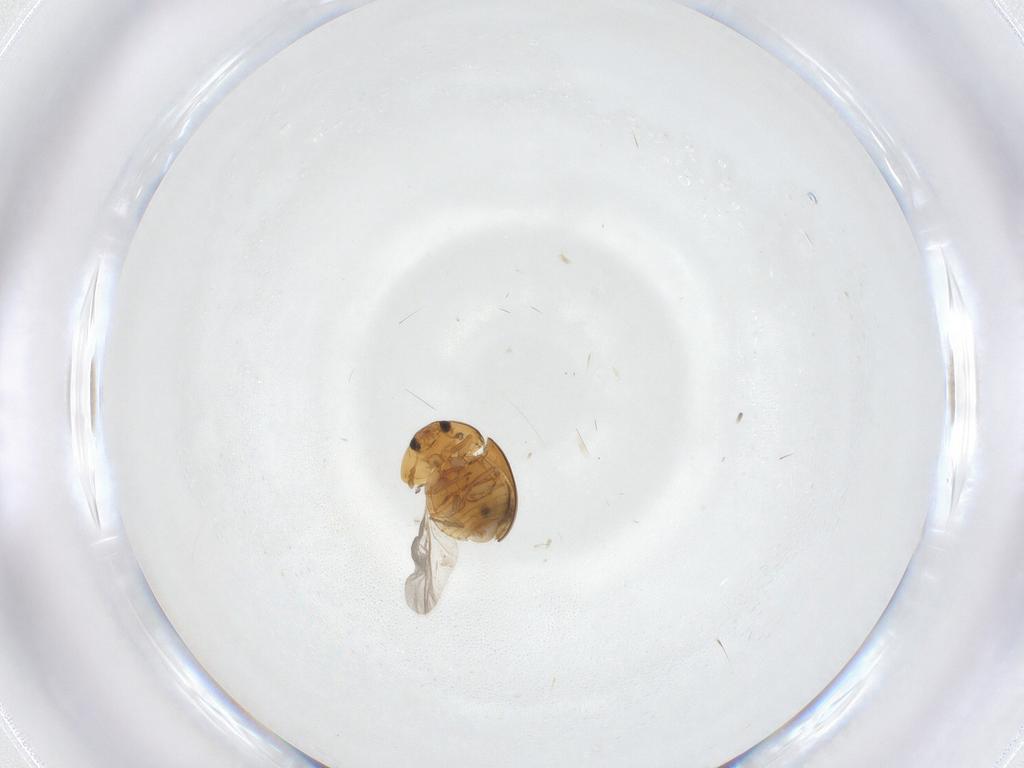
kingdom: Animalia
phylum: Arthropoda
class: Insecta
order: Coleoptera
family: Phalacridae
